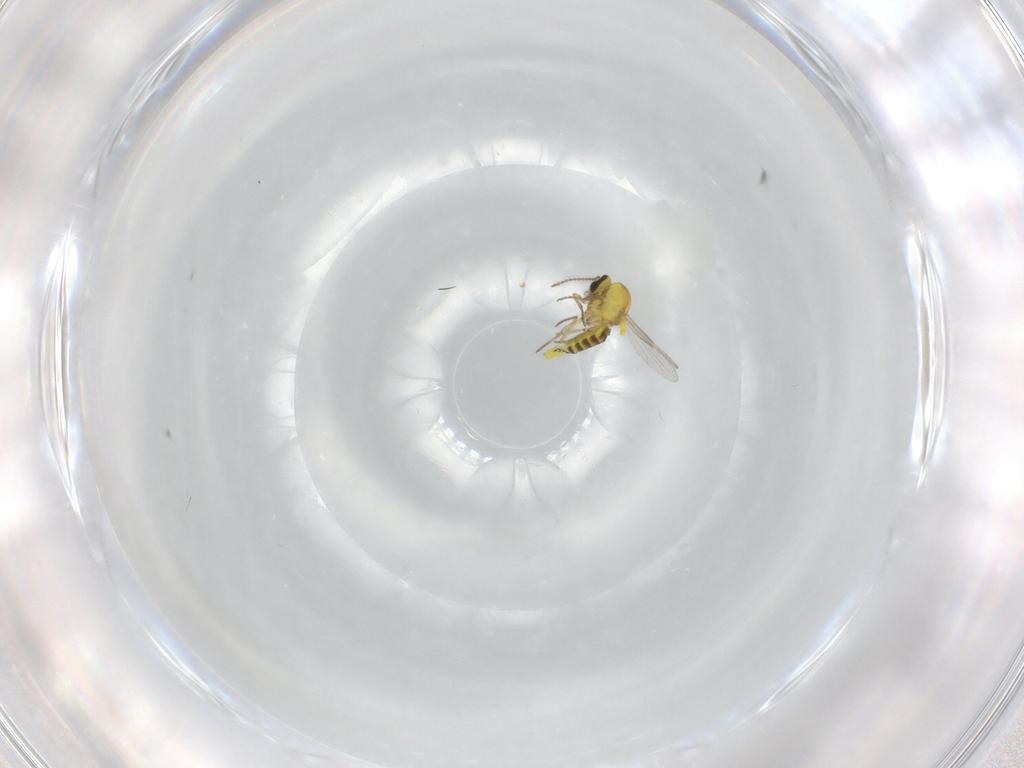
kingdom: Animalia
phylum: Arthropoda
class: Insecta
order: Diptera
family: Ceratopogonidae
